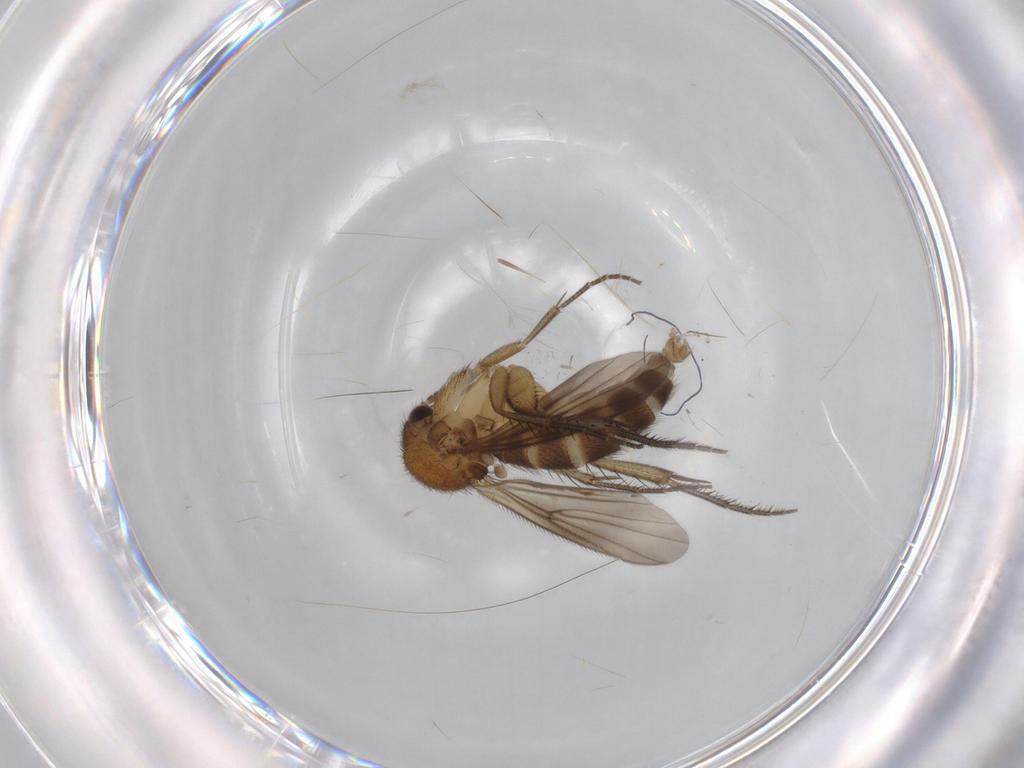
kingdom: Animalia
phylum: Arthropoda
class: Insecta
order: Diptera
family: Mycetophilidae
